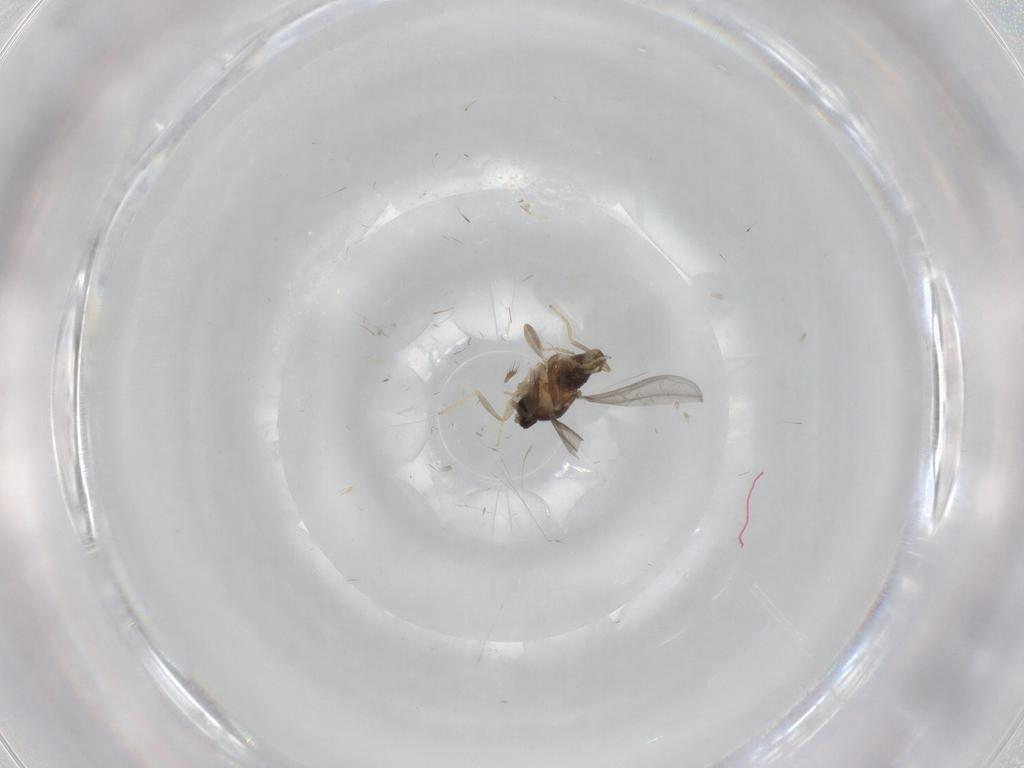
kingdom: Animalia
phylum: Arthropoda
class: Insecta
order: Diptera
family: Cecidomyiidae
